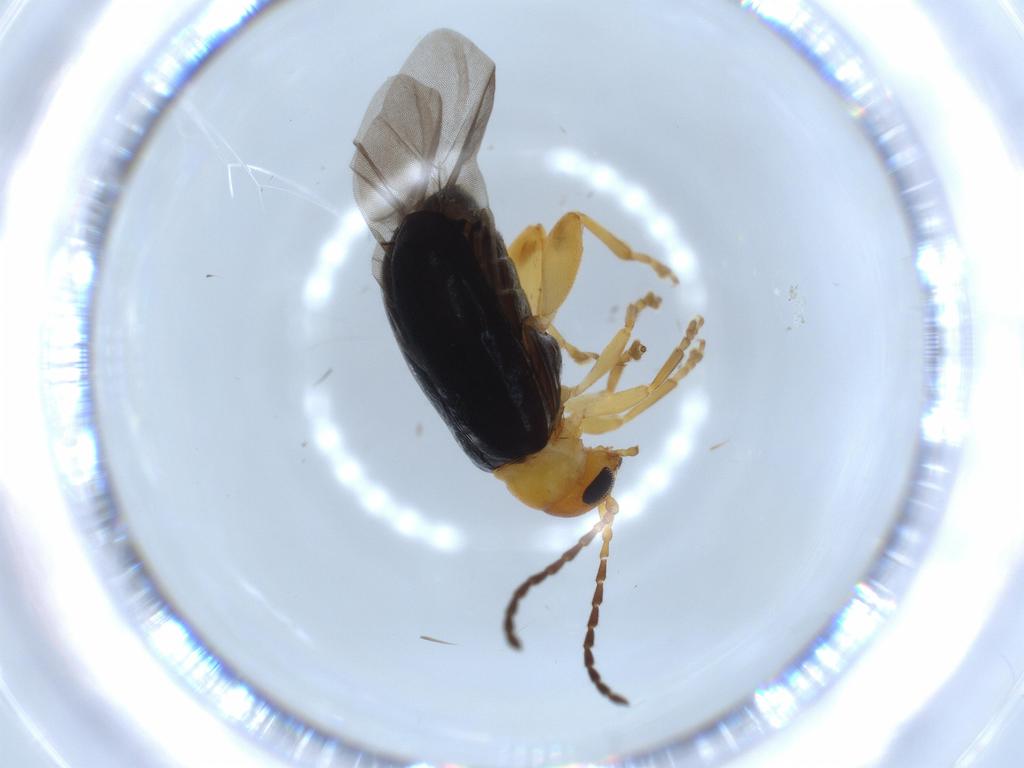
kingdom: Animalia
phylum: Arthropoda
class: Insecta
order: Coleoptera
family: Chrysomelidae
